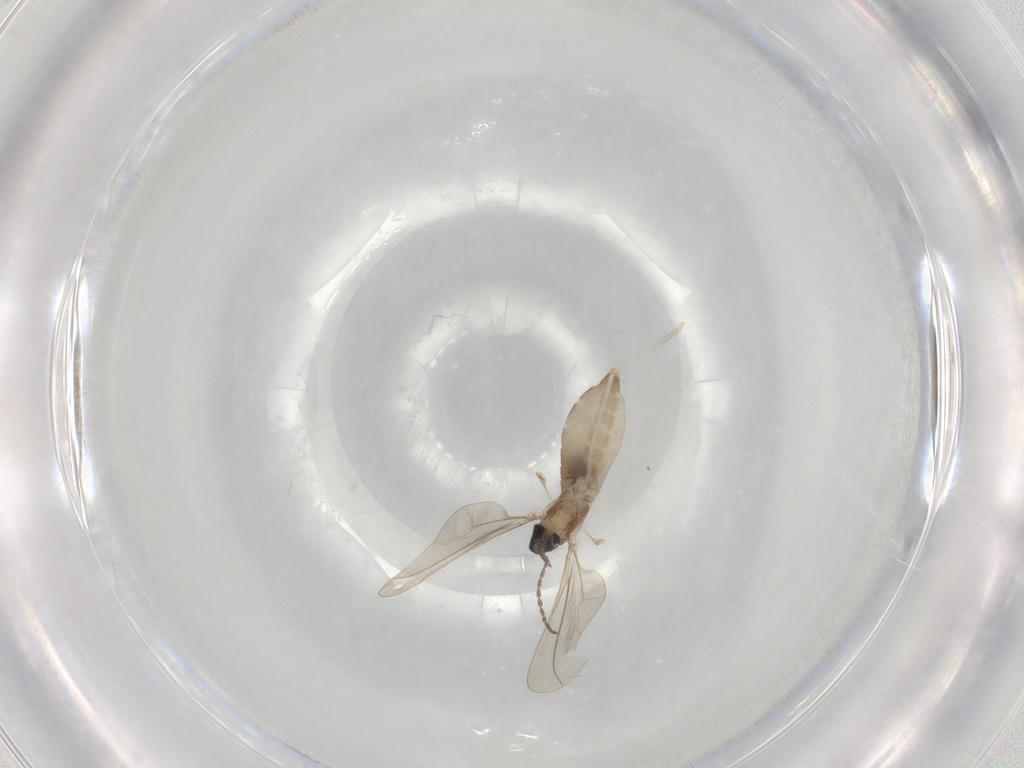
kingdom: Animalia
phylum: Arthropoda
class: Insecta
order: Diptera
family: Cecidomyiidae
